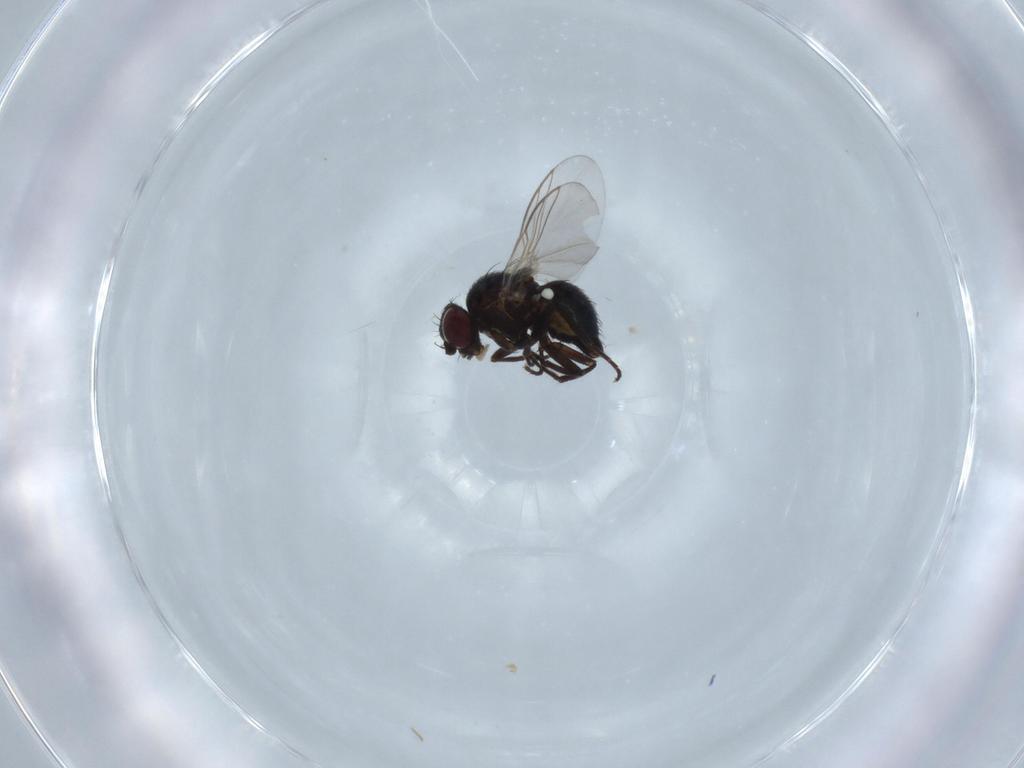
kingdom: Animalia
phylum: Arthropoda
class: Insecta
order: Diptera
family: Agromyzidae
